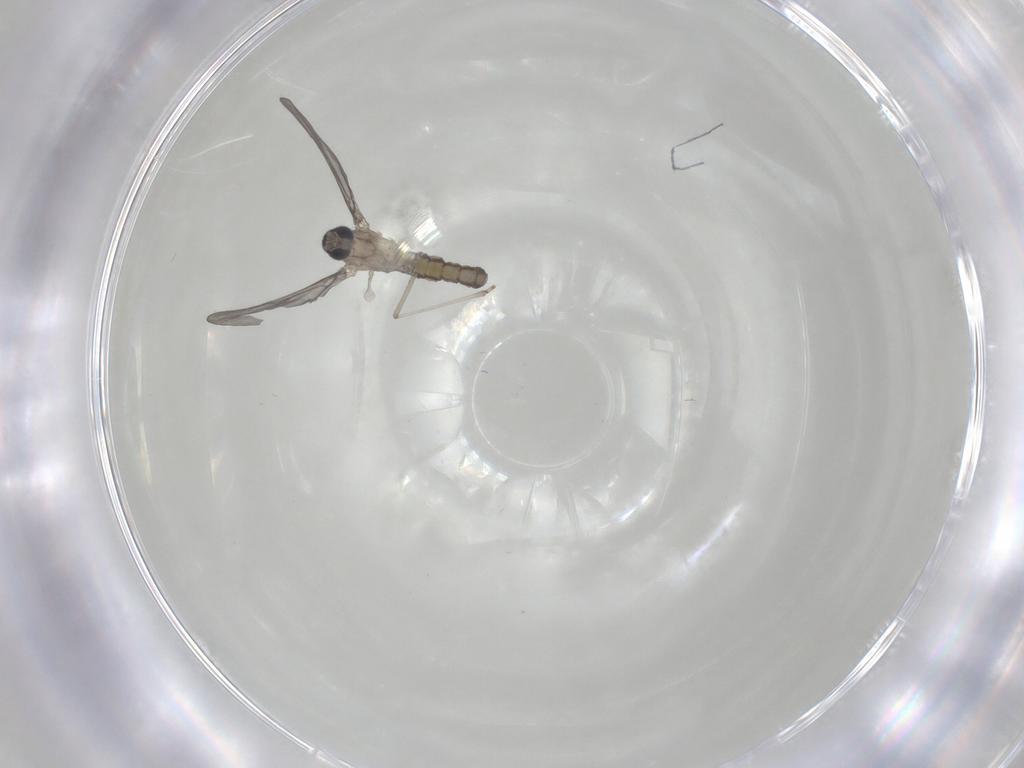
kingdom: Animalia
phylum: Arthropoda
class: Insecta
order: Diptera
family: Cecidomyiidae
